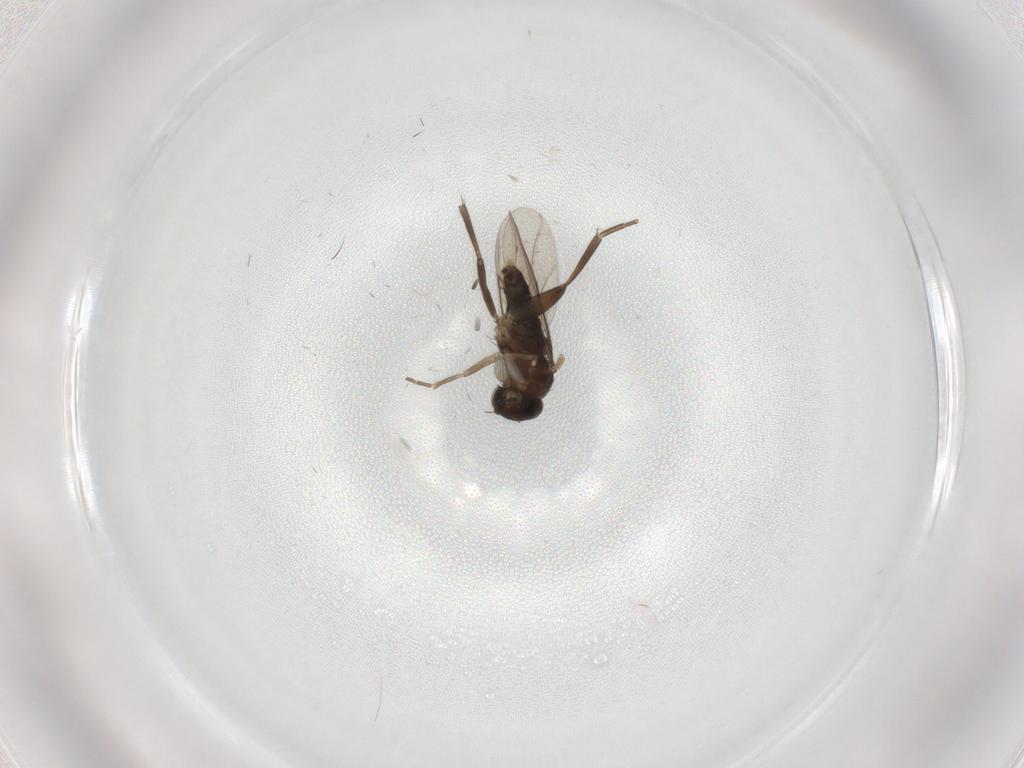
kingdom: Animalia
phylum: Arthropoda
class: Insecta
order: Diptera
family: Phoridae
